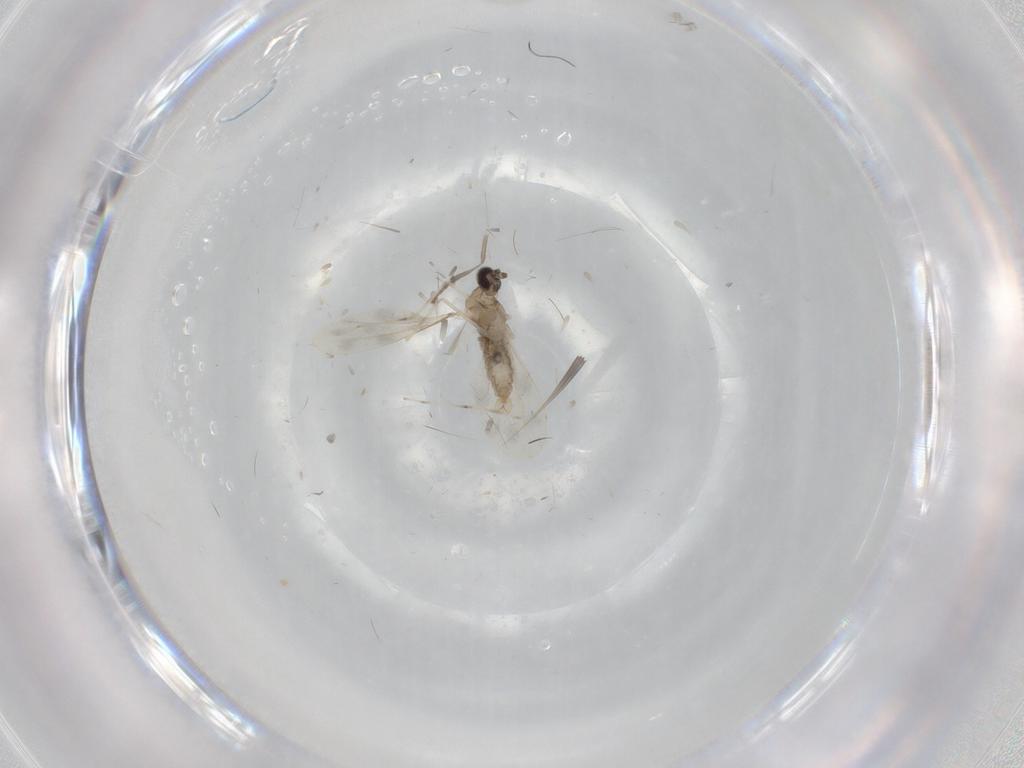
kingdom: Animalia
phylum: Arthropoda
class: Insecta
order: Diptera
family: Cecidomyiidae
